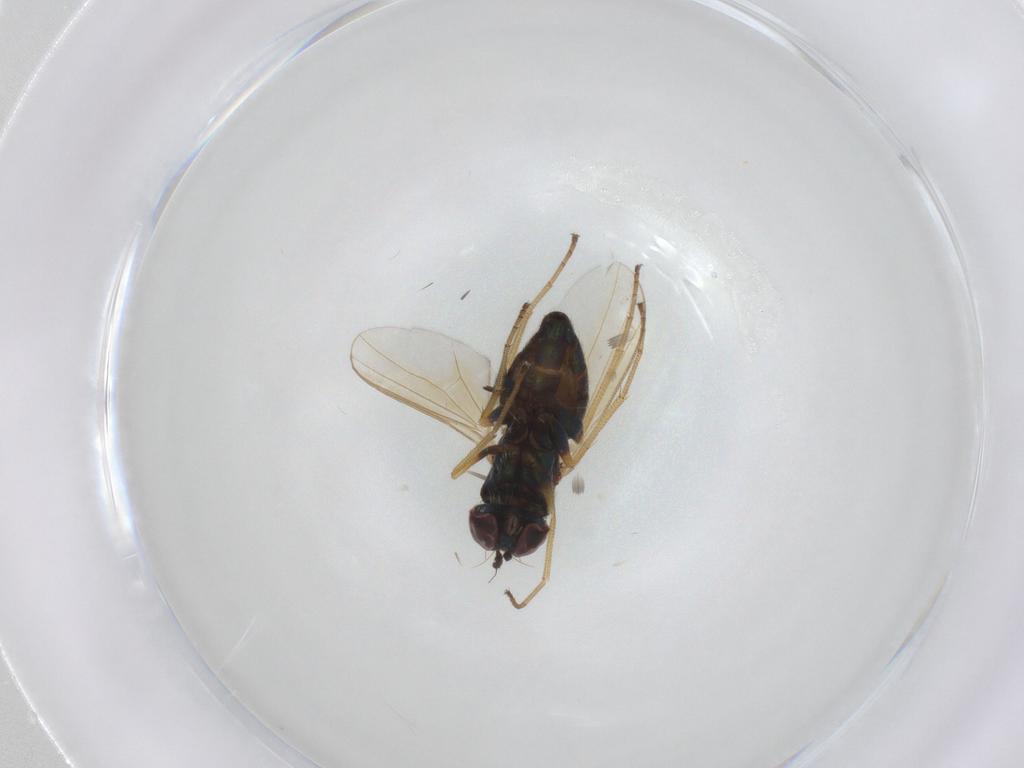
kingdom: Animalia
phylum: Arthropoda
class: Insecta
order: Diptera
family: Dolichopodidae
